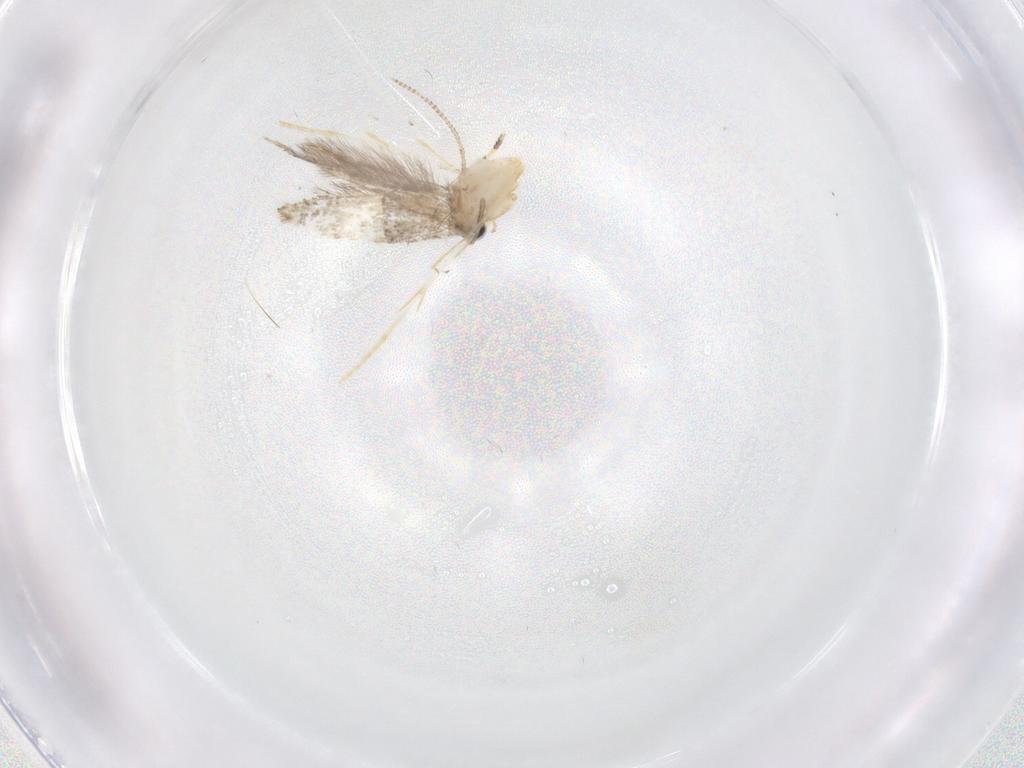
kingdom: Animalia
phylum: Arthropoda
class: Insecta
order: Lepidoptera
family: Tineidae
